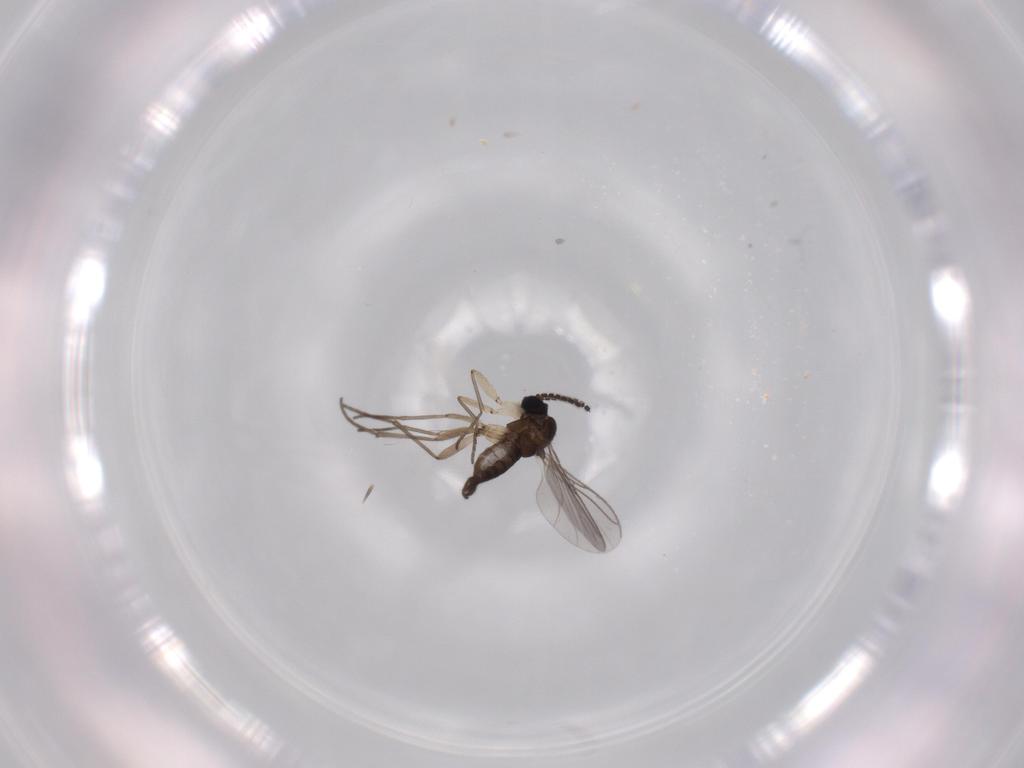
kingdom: Animalia
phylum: Arthropoda
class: Insecta
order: Diptera
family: Sciaridae
